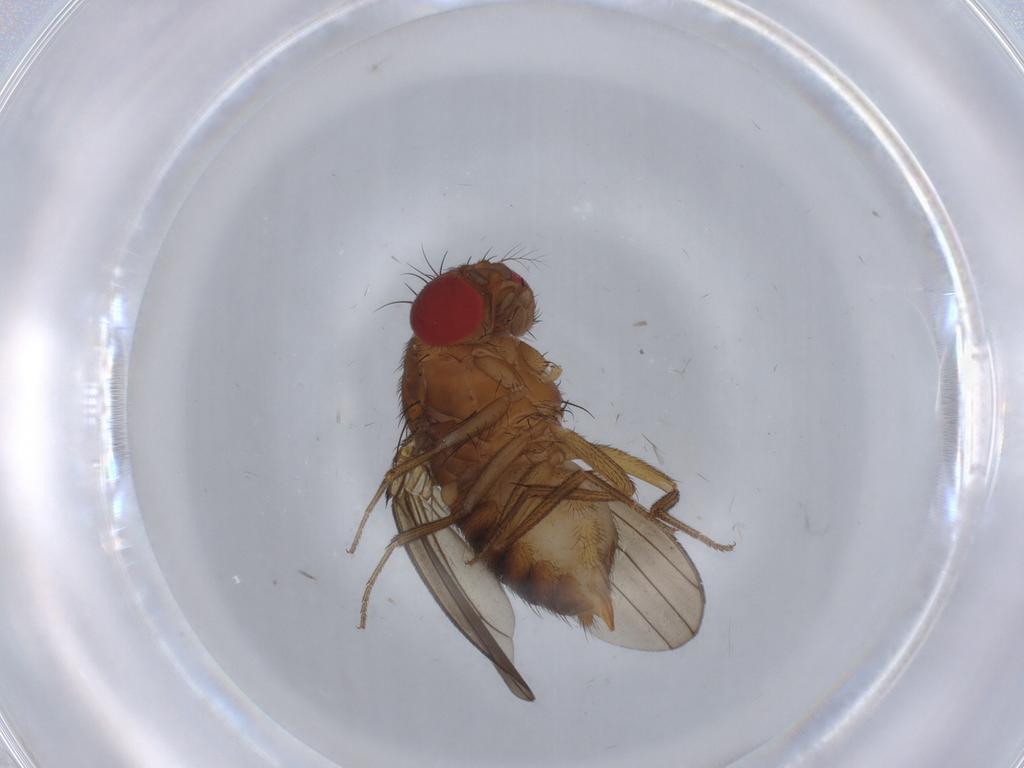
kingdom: Animalia
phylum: Arthropoda
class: Insecta
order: Diptera
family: Drosophilidae
